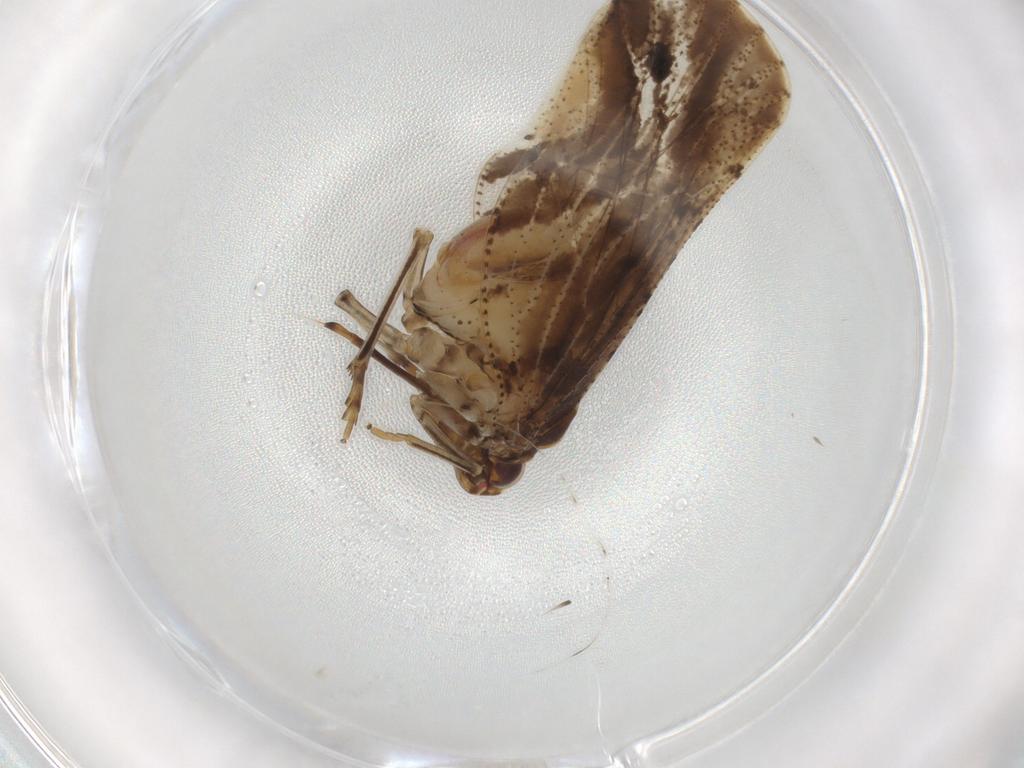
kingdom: Animalia
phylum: Arthropoda
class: Insecta
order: Hemiptera
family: Cixiidae
